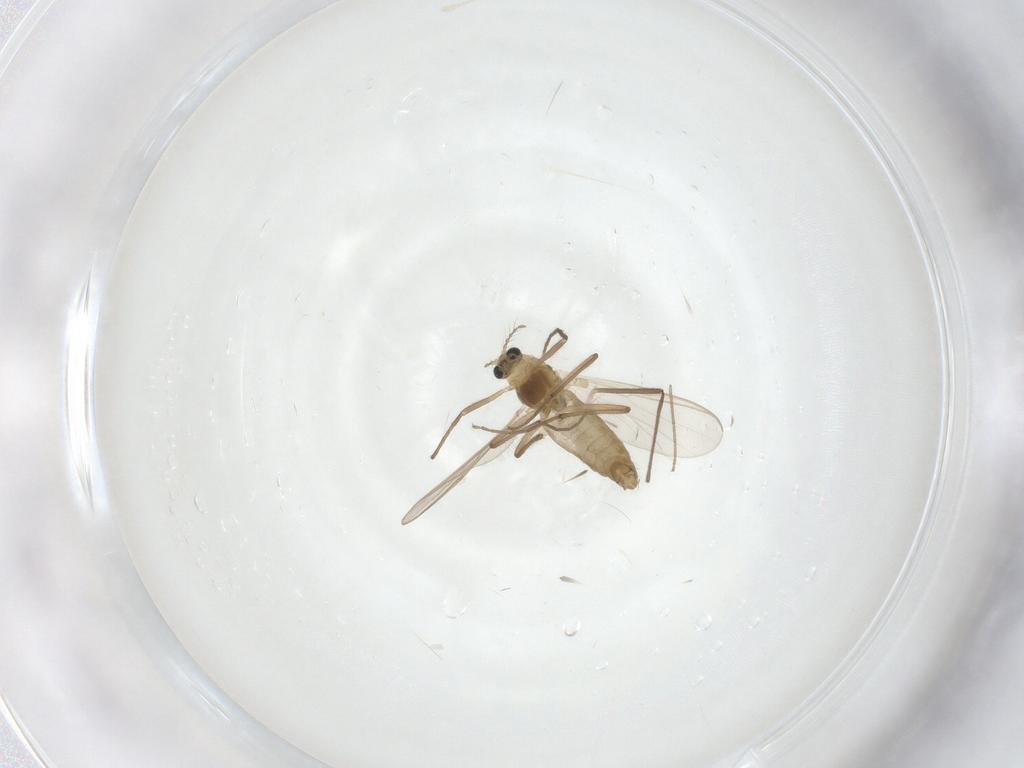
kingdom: Animalia
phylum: Arthropoda
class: Insecta
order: Diptera
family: Chironomidae
